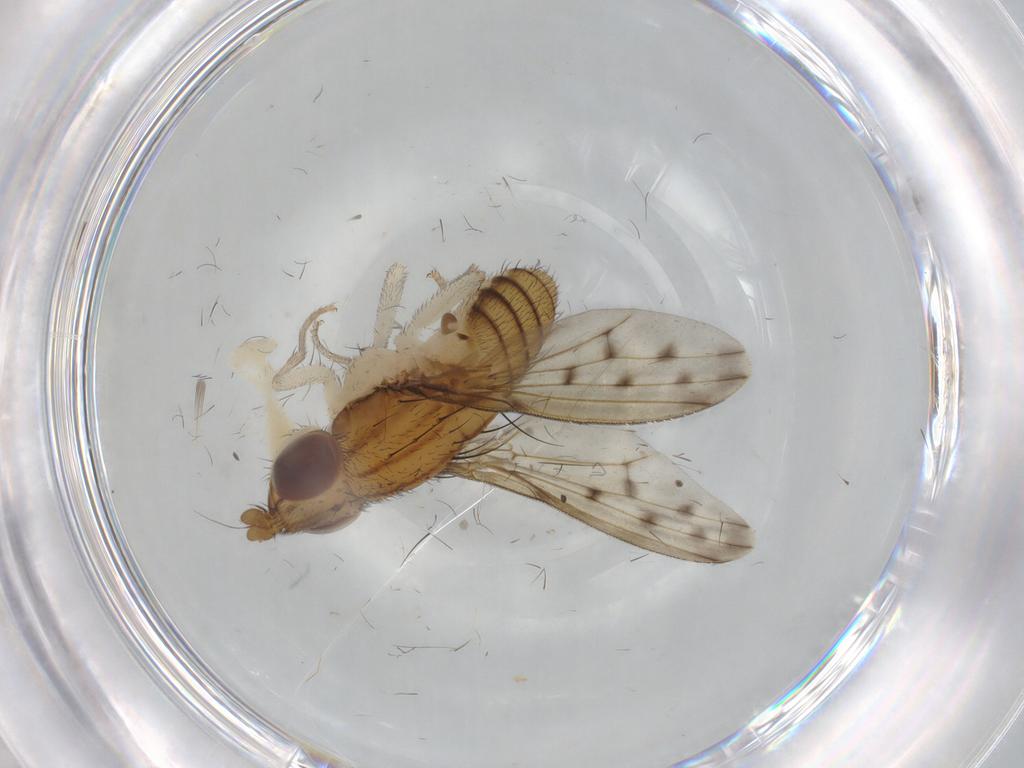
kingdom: Animalia
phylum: Arthropoda
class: Insecta
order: Diptera
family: Lauxaniidae
